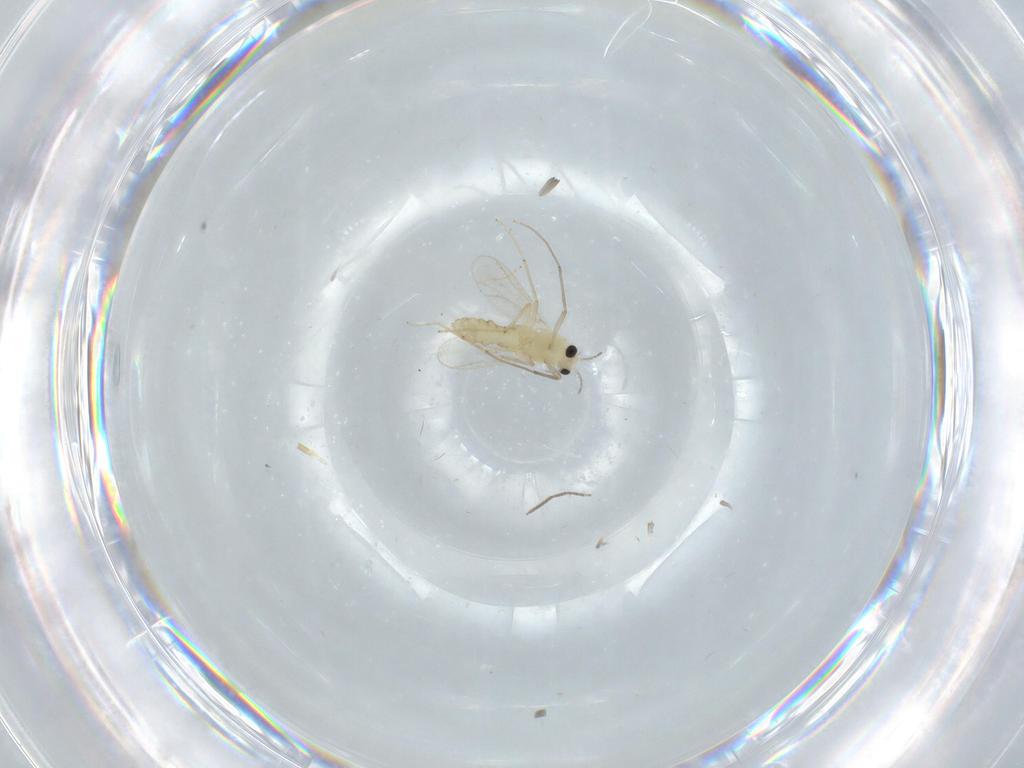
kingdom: Animalia
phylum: Arthropoda
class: Insecta
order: Diptera
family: Chironomidae
